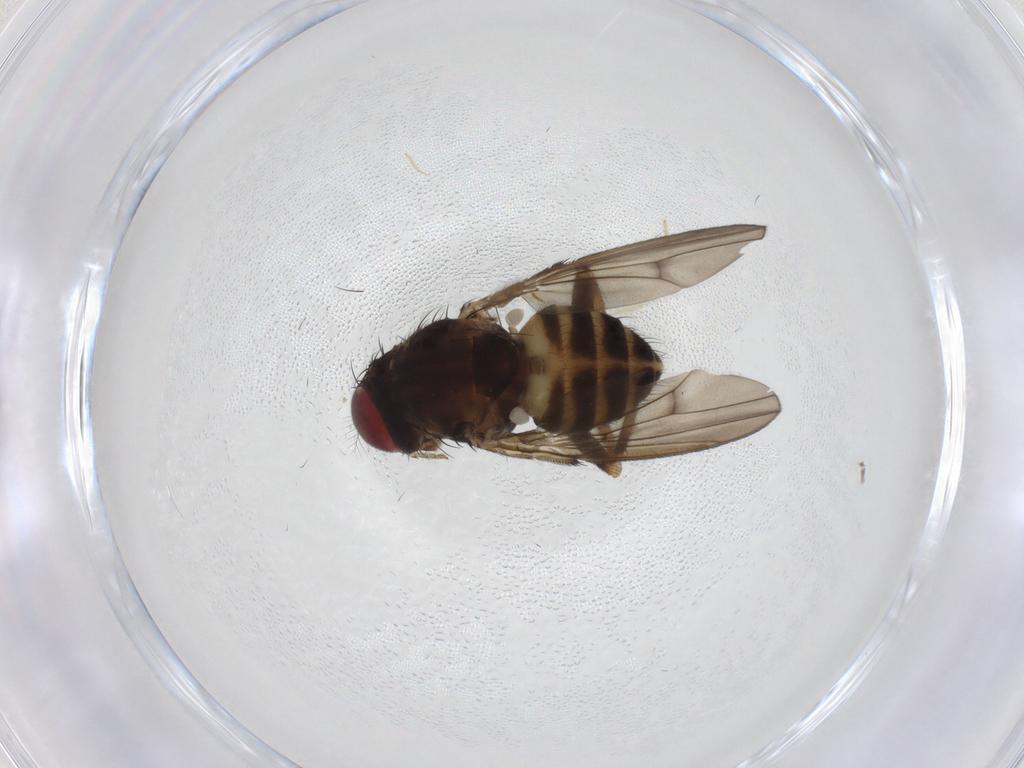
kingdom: Animalia
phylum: Arthropoda
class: Insecta
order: Diptera
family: Drosophilidae
